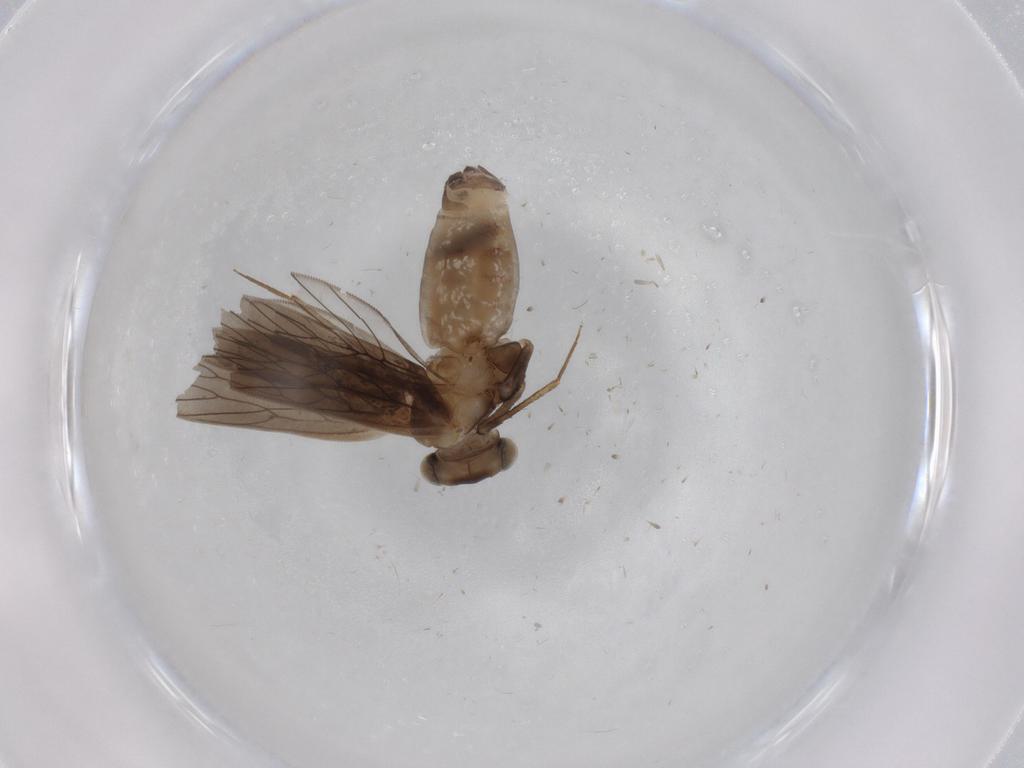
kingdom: Animalia
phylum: Arthropoda
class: Insecta
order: Psocodea
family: Lepidopsocidae
